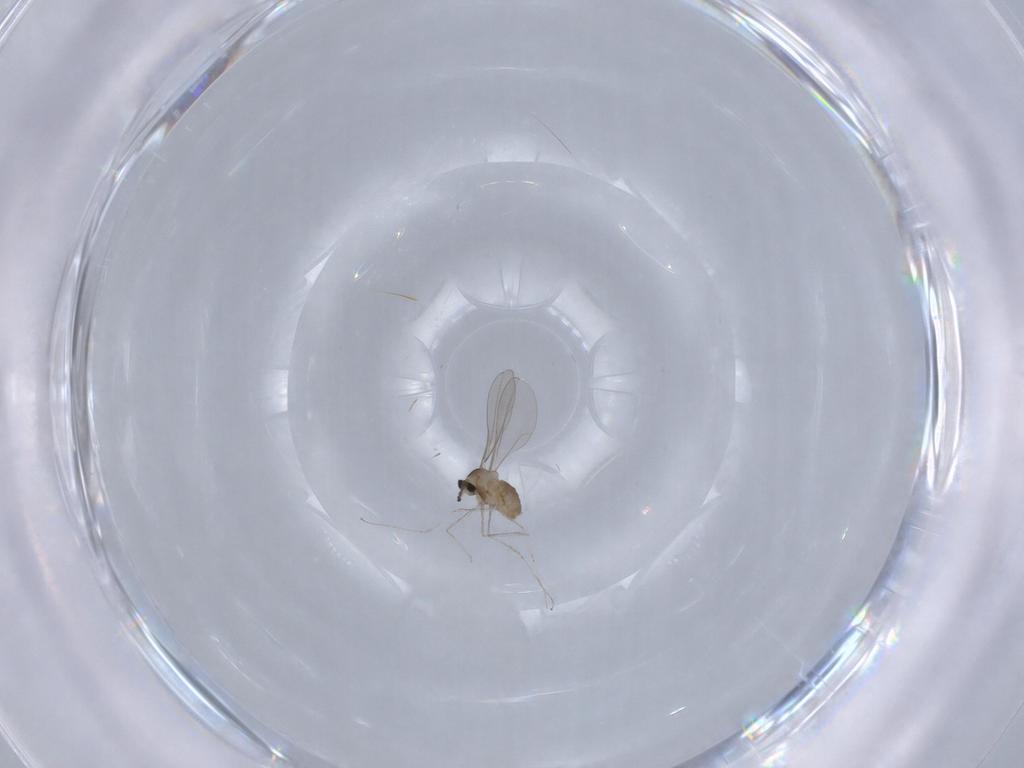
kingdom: Animalia
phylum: Arthropoda
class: Insecta
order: Diptera
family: Cecidomyiidae
